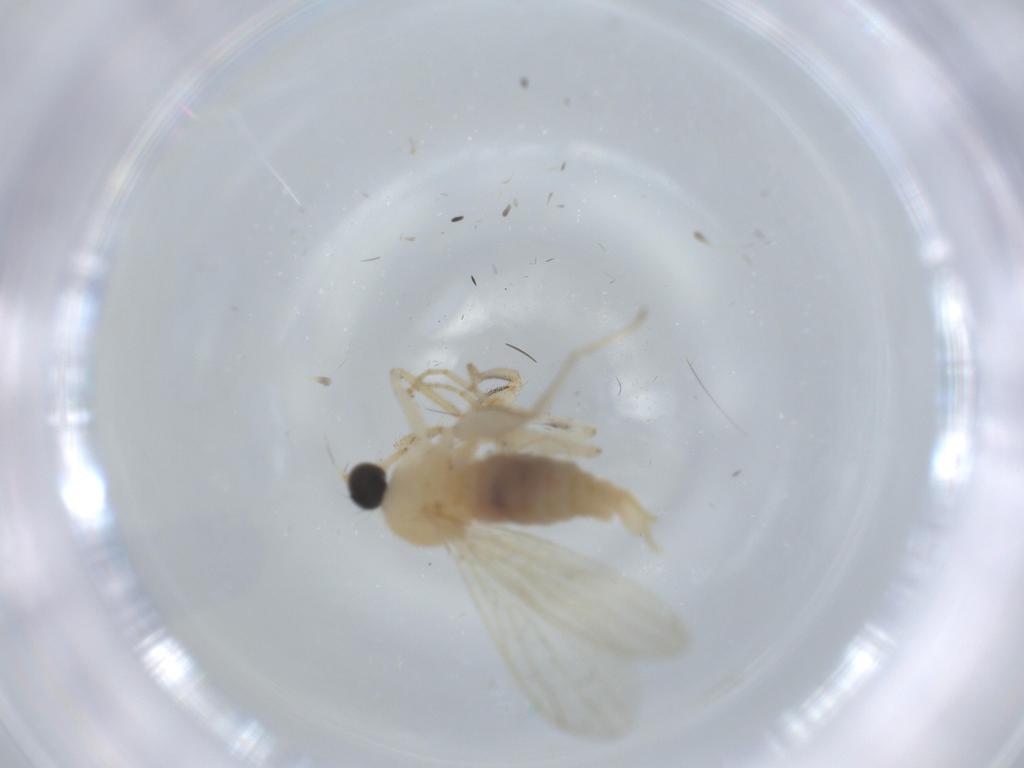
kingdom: Animalia
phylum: Arthropoda
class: Insecta
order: Diptera
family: Hybotidae
